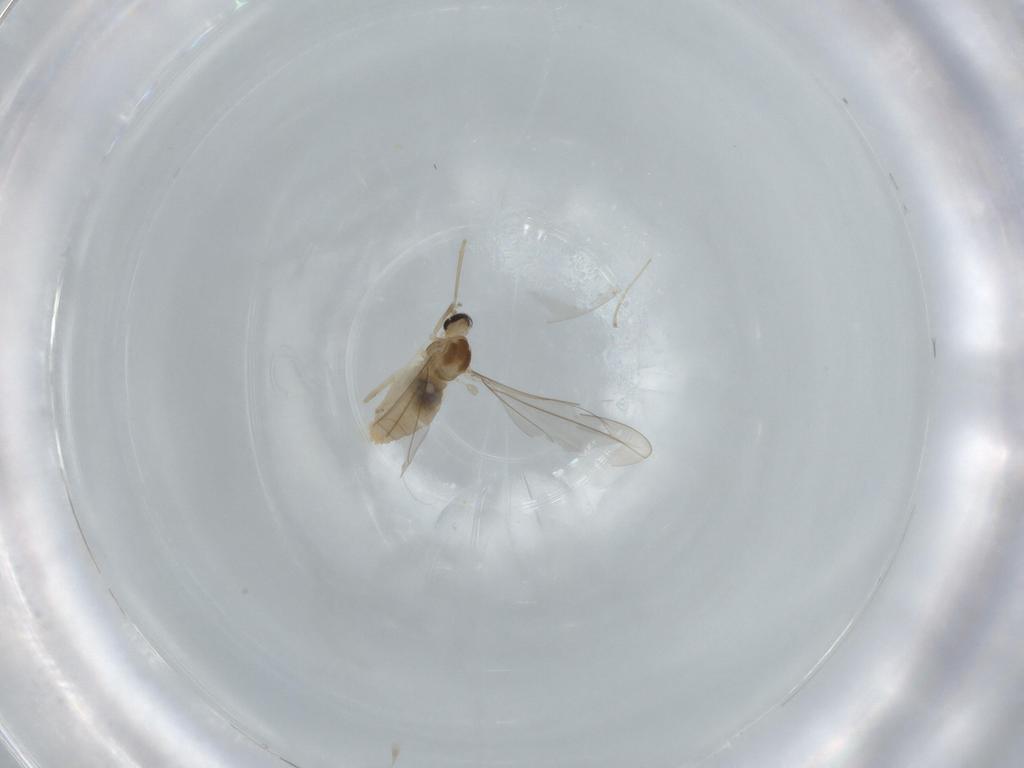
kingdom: Animalia
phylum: Arthropoda
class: Insecta
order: Diptera
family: Cecidomyiidae
